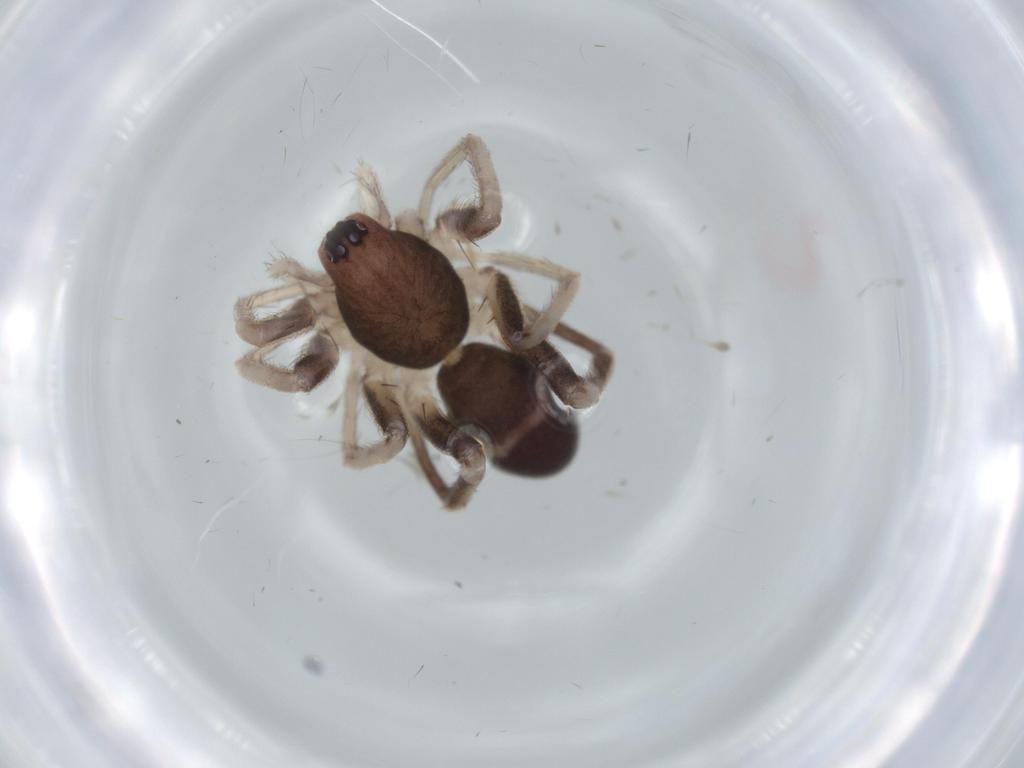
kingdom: Animalia
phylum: Arthropoda
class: Arachnida
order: Araneae
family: Corinnidae
